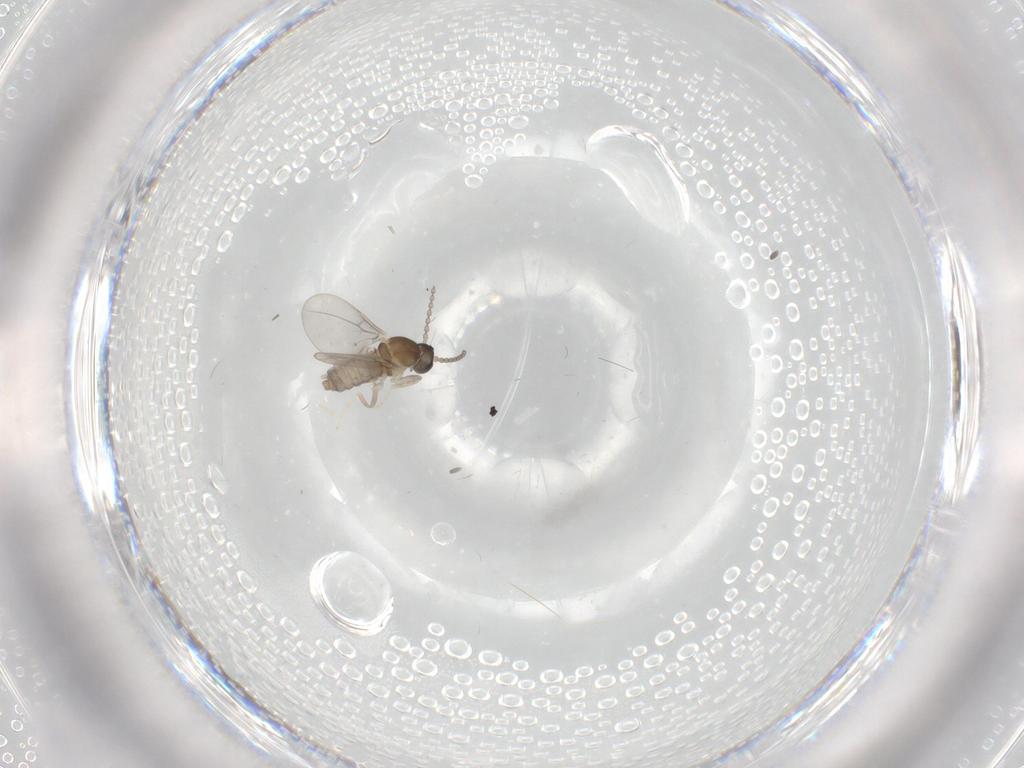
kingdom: Animalia
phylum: Arthropoda
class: Insecta
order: Diptera
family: Cecidomyiidae
